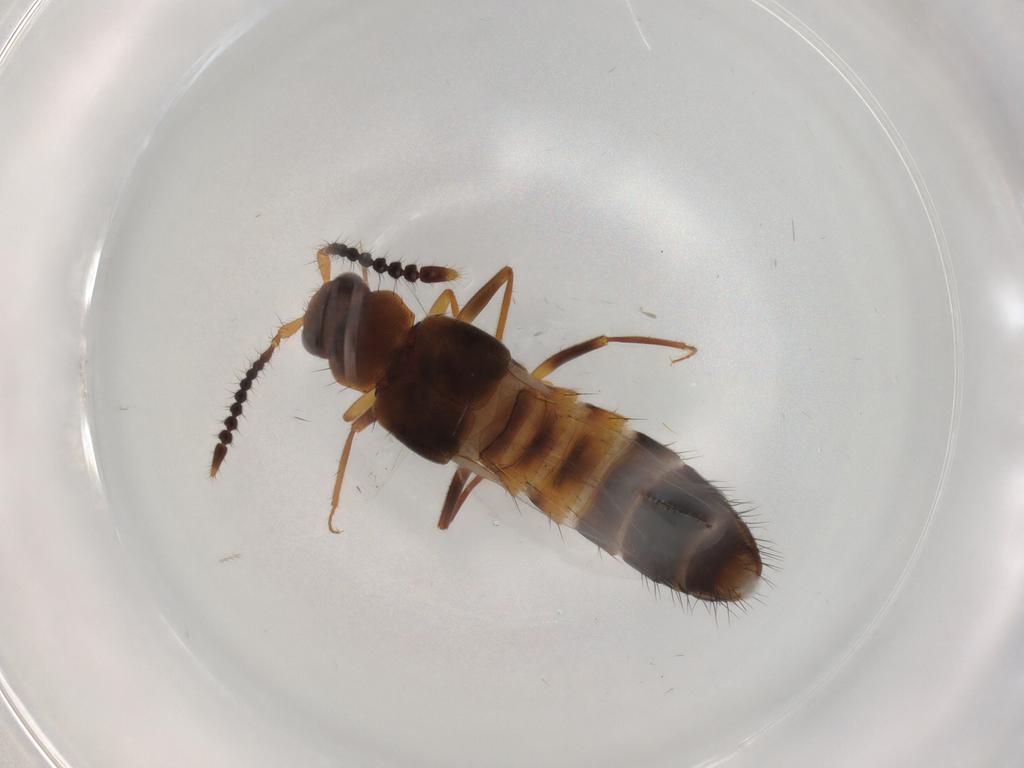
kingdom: Animalia
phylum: Arthropoda
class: Insecta
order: Coleoptera
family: Staphylinidae
